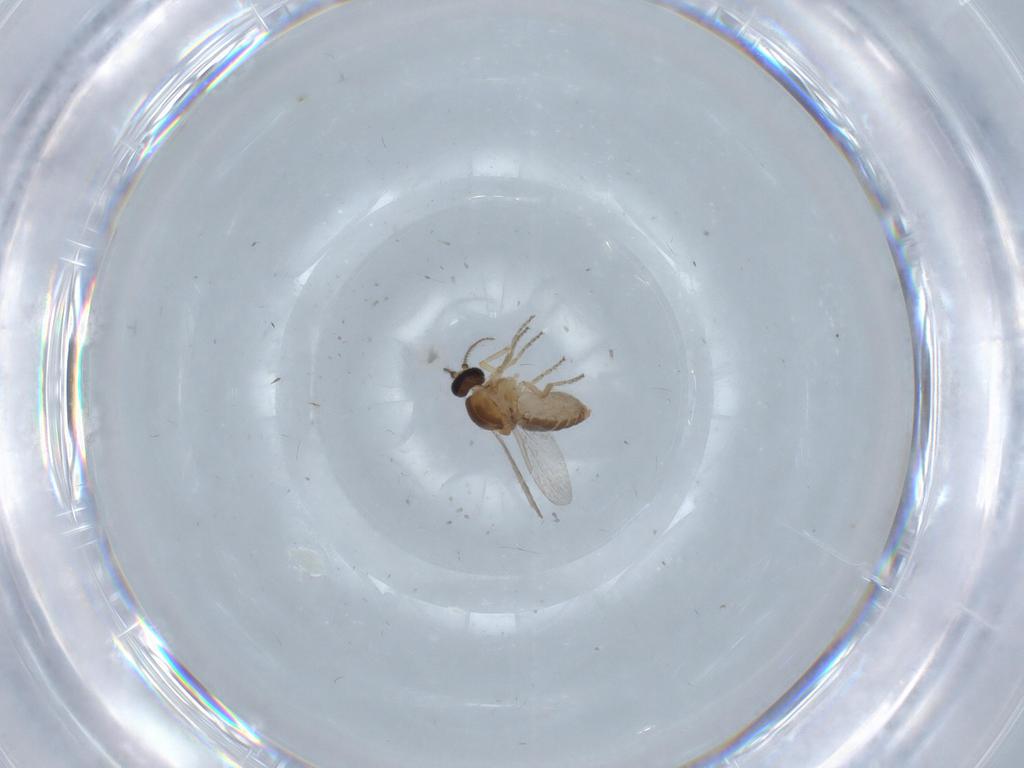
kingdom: Animalia
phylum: Arthropoda
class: Insecta
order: Diptera
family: Ceratopogonidae
